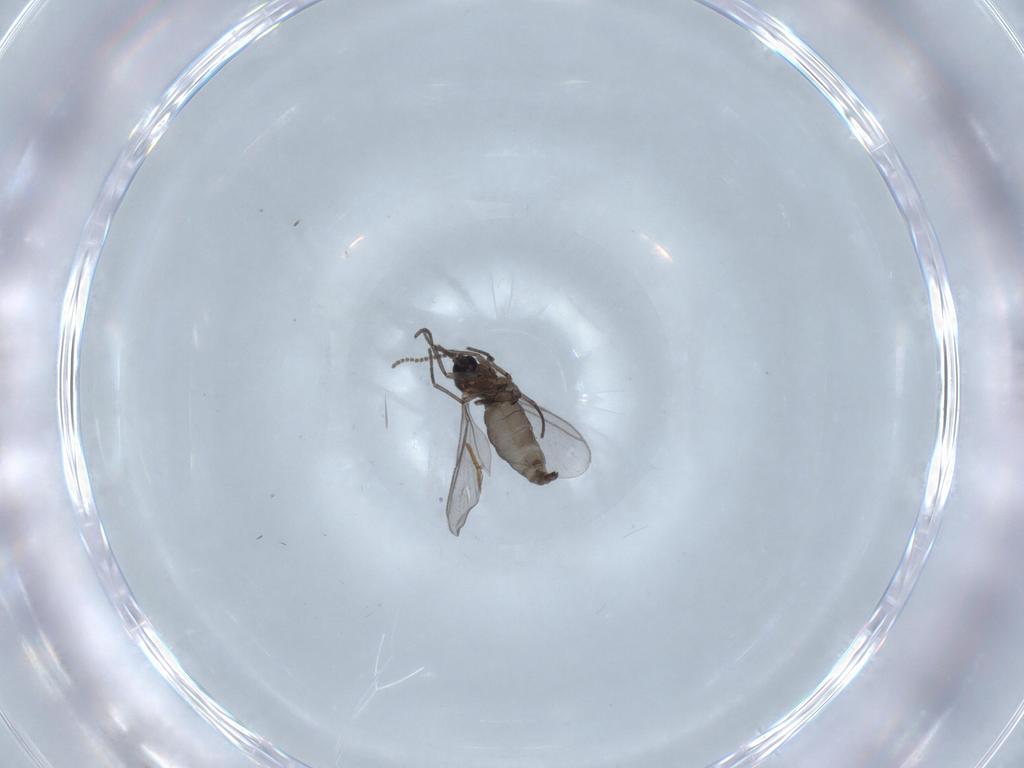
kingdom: Animalia
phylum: Arthropoda
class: Insecta
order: Diptera
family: Mycetophilidae
